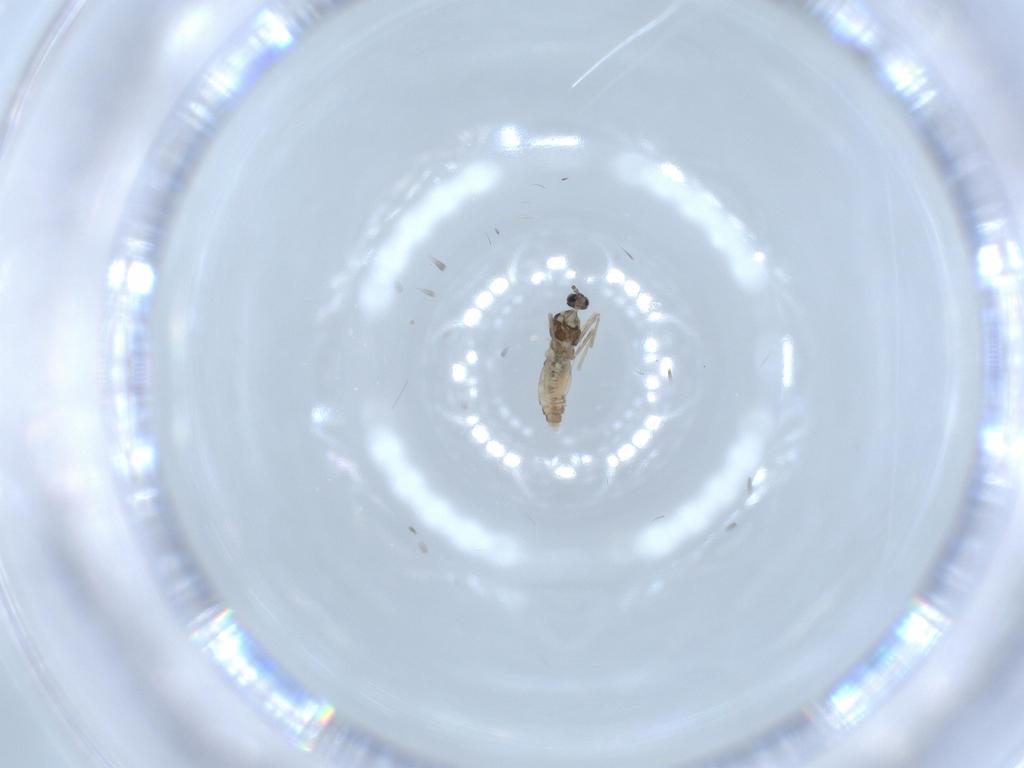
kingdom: Animalia
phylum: Arthropoda
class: Insecta
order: Diptera
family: Cecidomyiidae
